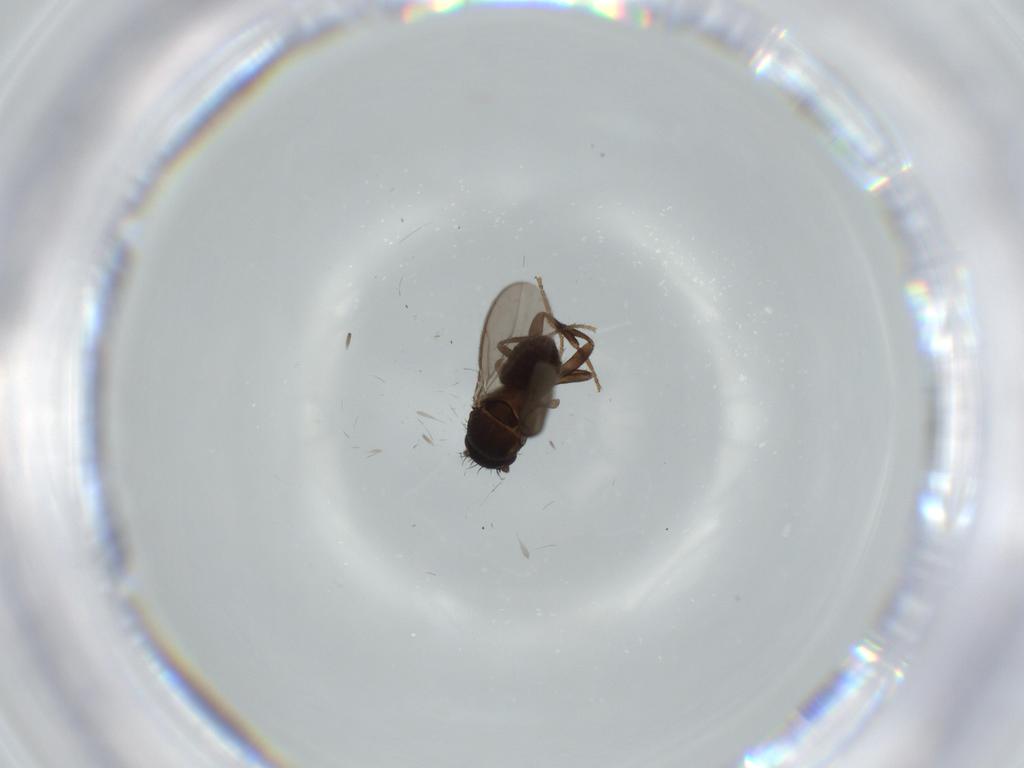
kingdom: Animalia
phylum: Arthropoda
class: Insecta
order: Diptera
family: Sphaeroceridae
